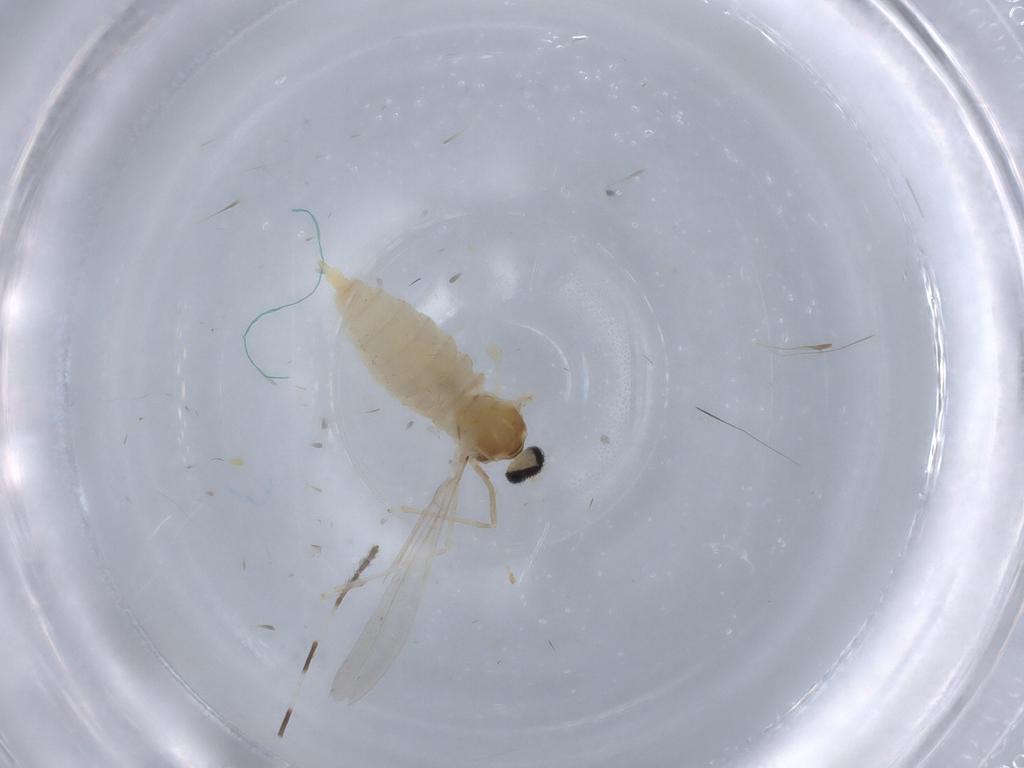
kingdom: Animalia
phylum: Arthropoda
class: Insecta
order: Diptera
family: Cecidomyiidae
